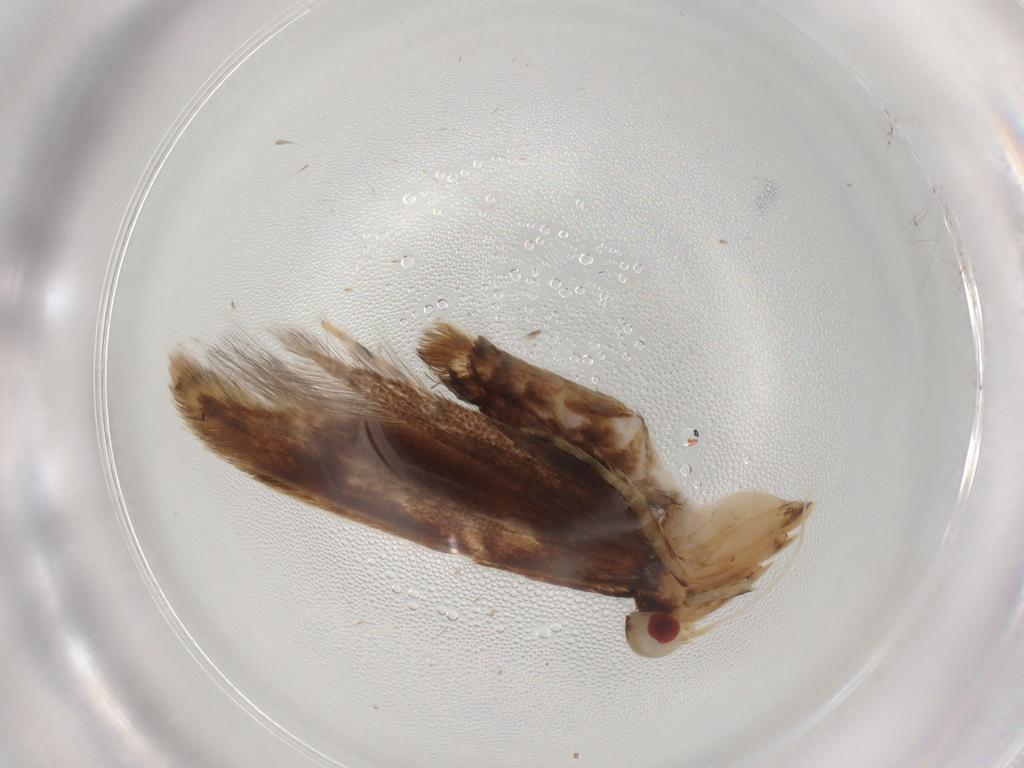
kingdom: Animalia
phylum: Arthropoda
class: Insecta
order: Lepidoptera
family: Cosmopterigidae
